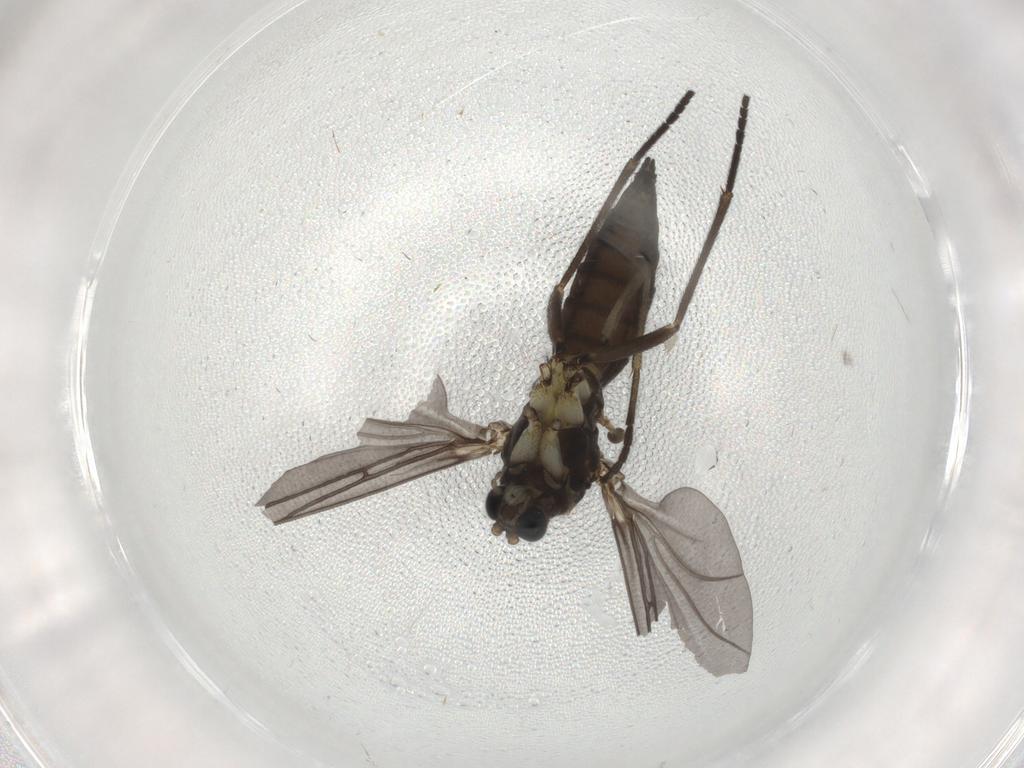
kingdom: Animalia
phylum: Arthropoda
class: Insecta
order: Diptera
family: Sciaridae
